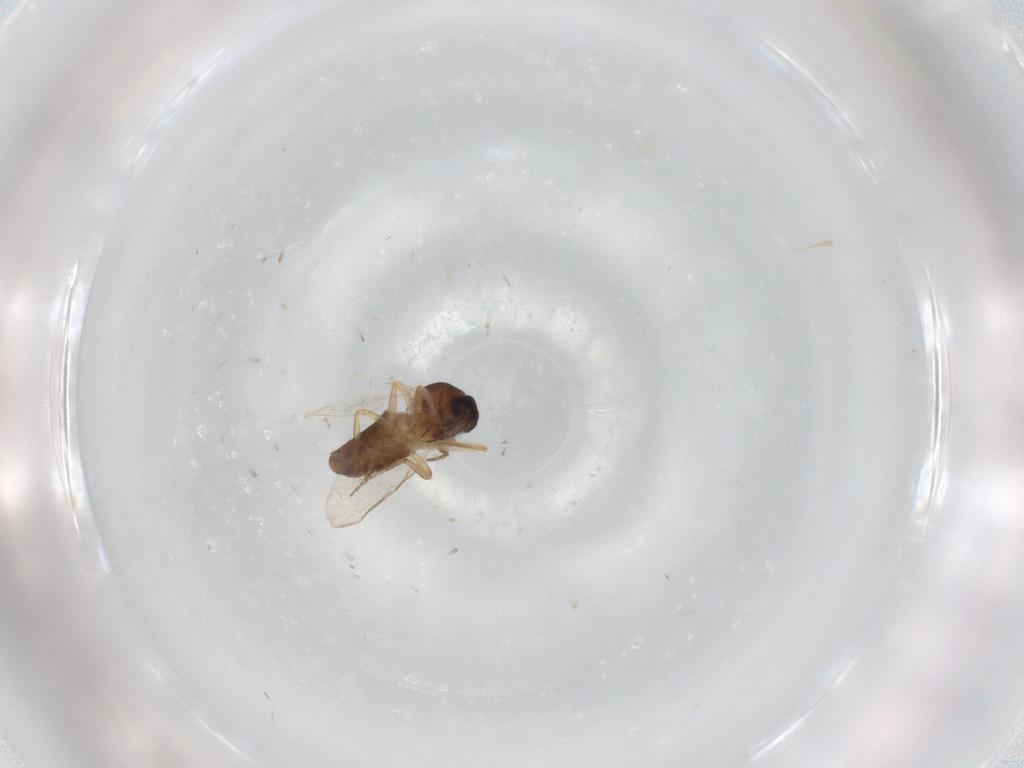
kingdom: Animalia
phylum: Arthropoda
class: Insecta
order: Diptera
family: Ceratopogonidae
